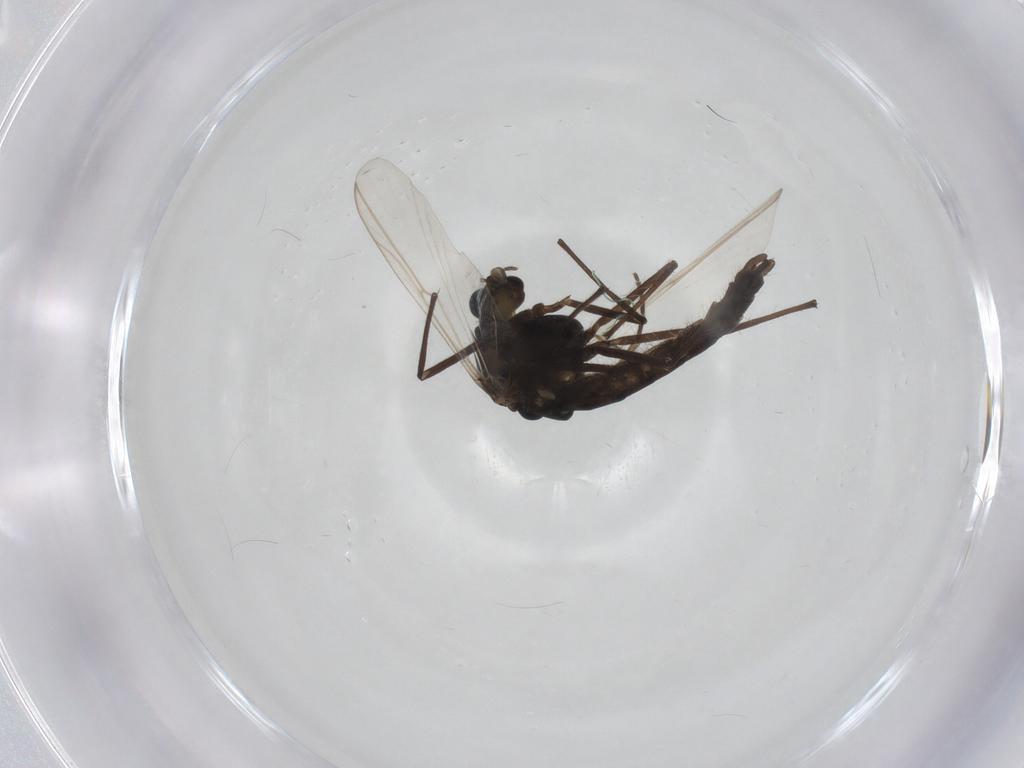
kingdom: Animalia
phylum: Arthropoda
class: Insecta
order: Diptera
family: Chironomidae
